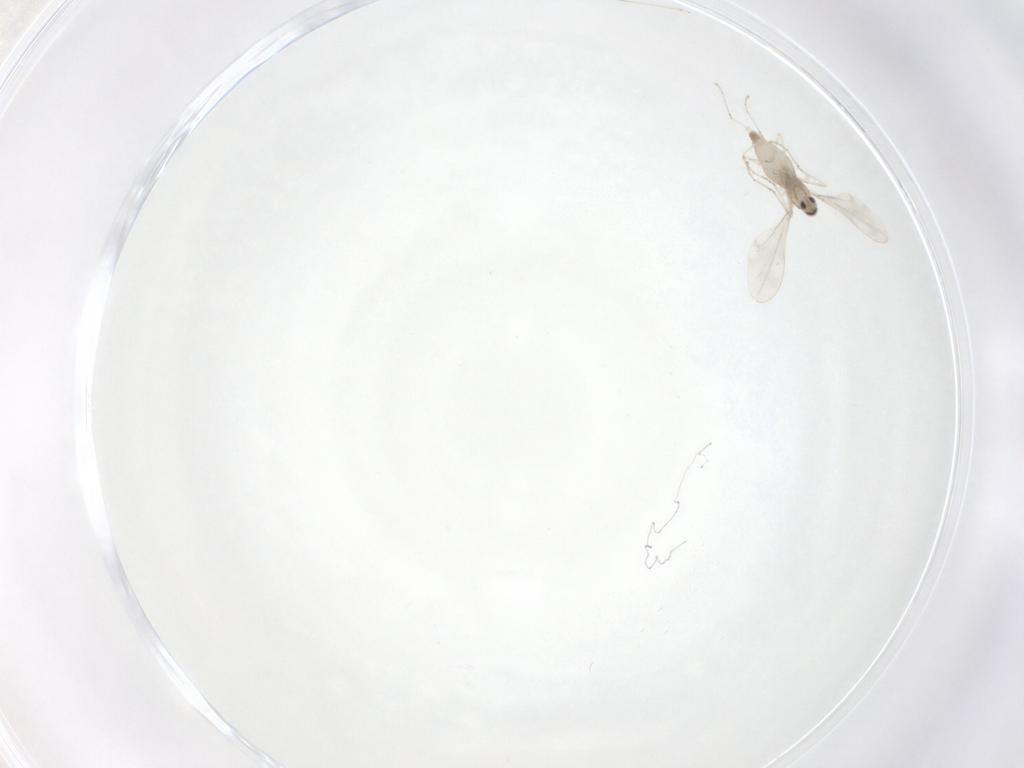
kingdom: Animalia
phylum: Arthropoda
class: Insecta
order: Diptera
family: Cecidomyiidae
